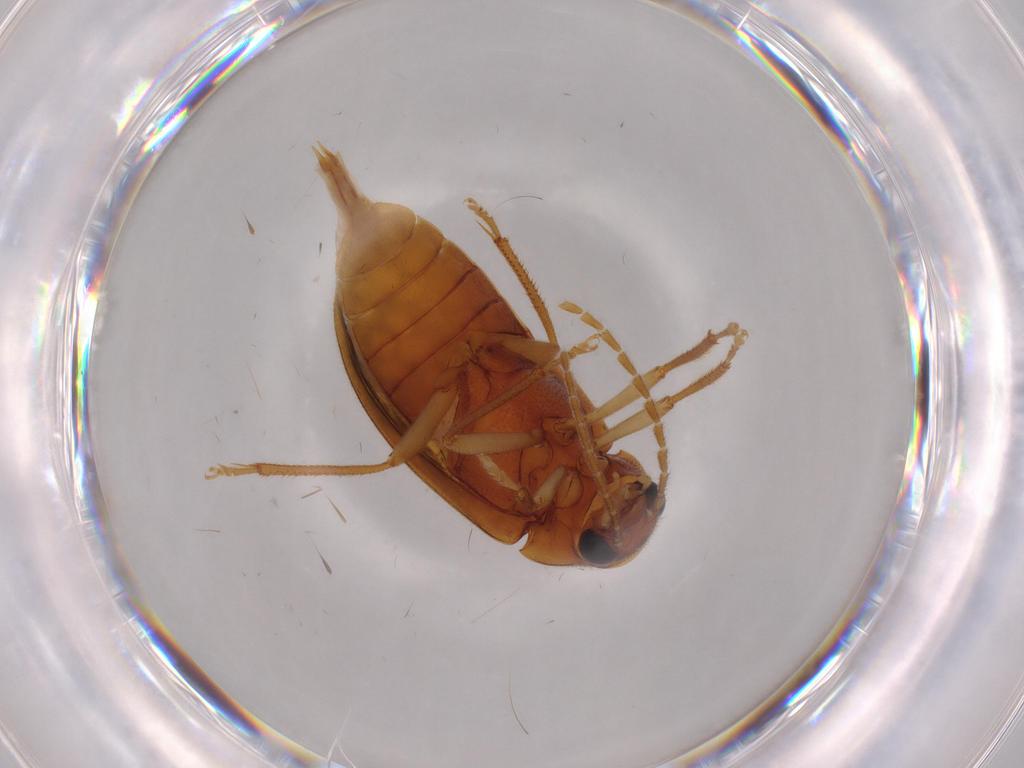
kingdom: Animalia
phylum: Arthropoda
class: Insecta
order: Coleoptera
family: Ptilodactylidae
